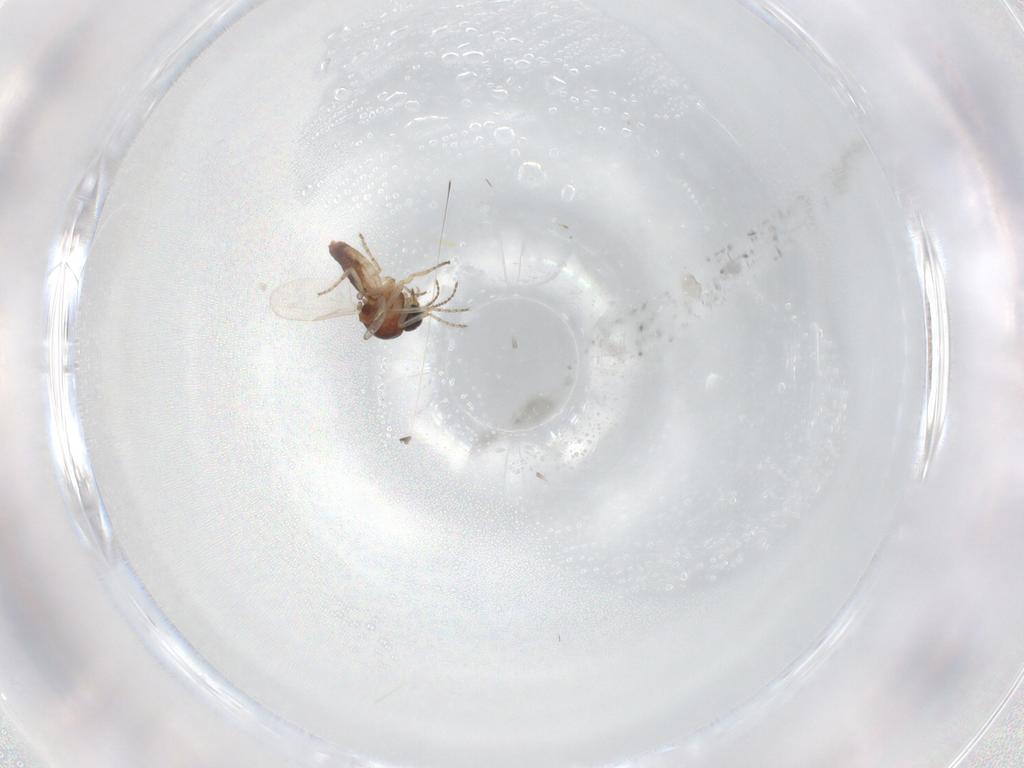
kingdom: Animalia
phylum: Arthropoda
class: Insecta
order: Diptera
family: Ceratopogonidae
